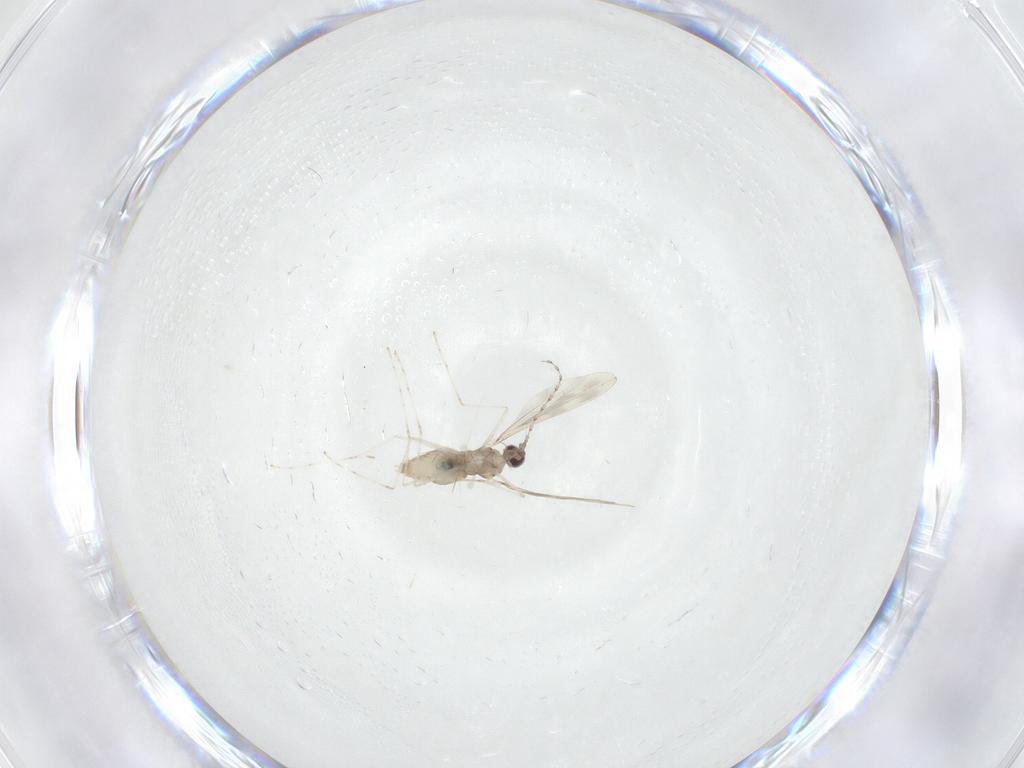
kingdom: Animalia
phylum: Arthropoda
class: Insecta
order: Diptera
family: Cecidomyiidae
